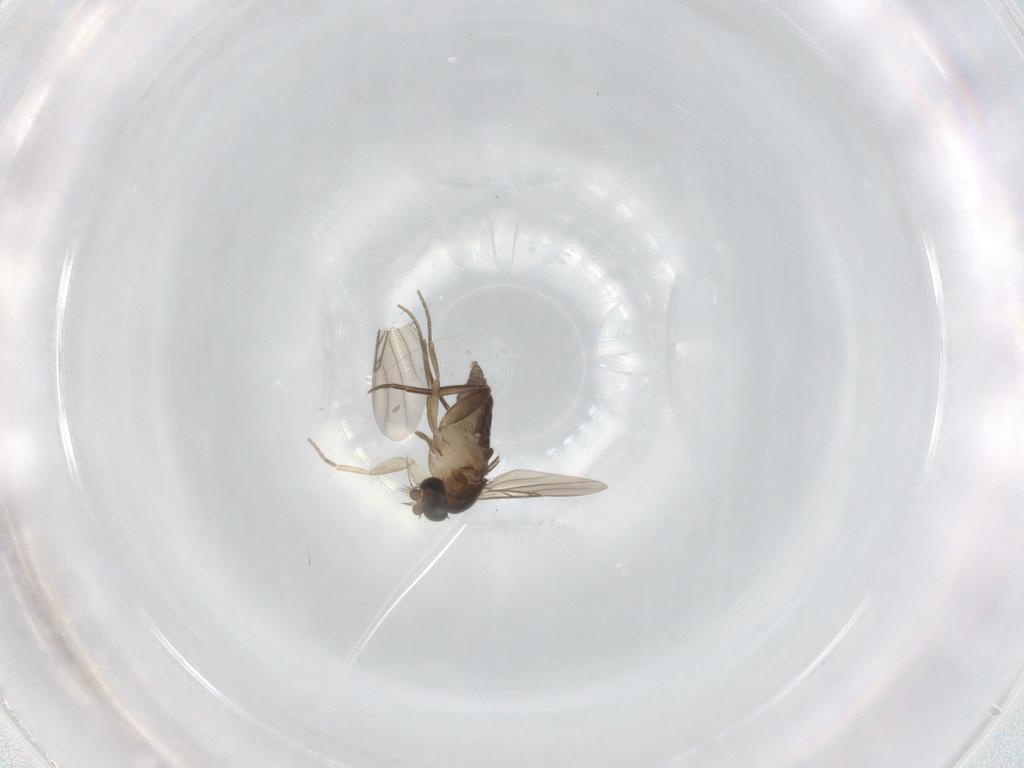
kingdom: Animalia
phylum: Arthropoda
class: Insecta
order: Diptera
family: Phoridae
